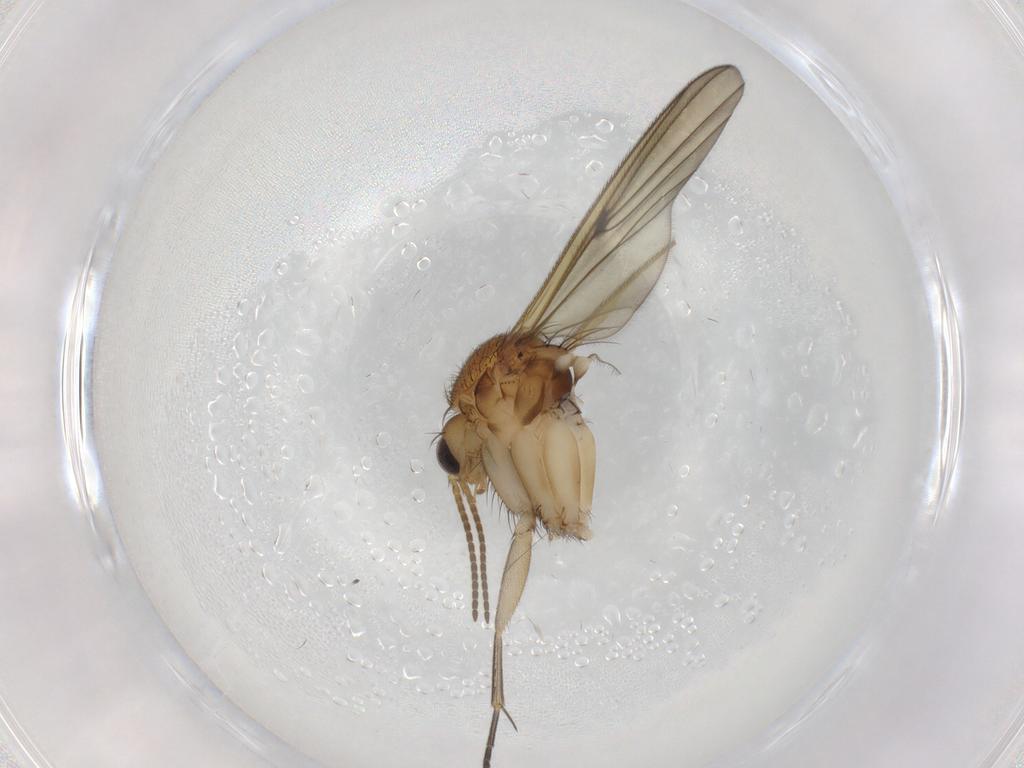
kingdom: Animalia
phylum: Arthropoda
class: Insecta
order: Diptera
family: Mycetophilidae
